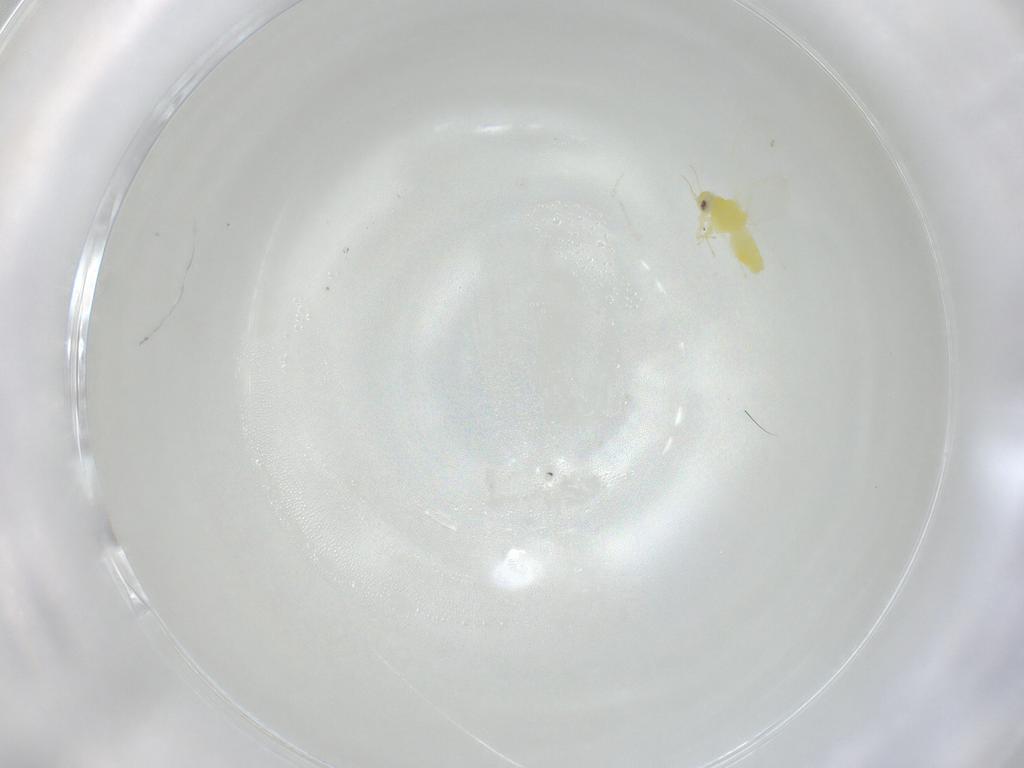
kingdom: Animalia
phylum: Arthropoda
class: Insecta
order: Hemiptera
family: Aleyrodidae
